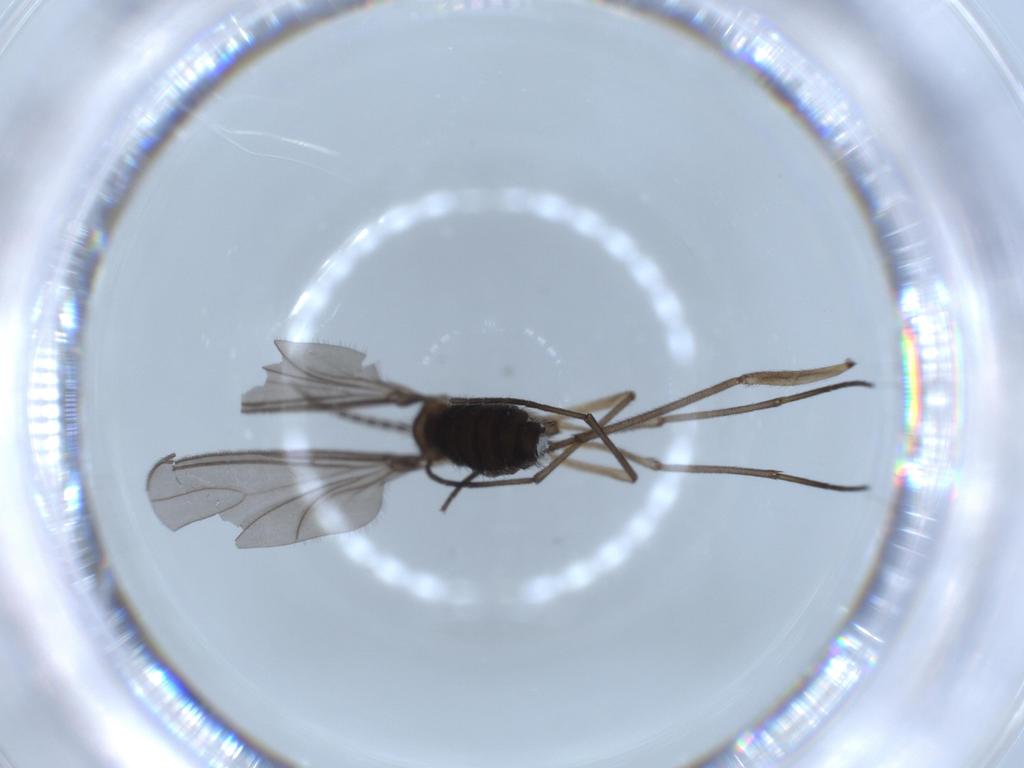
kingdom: Animalia
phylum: Arthropoda
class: Insecta
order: Diptera
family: Sciaridae
